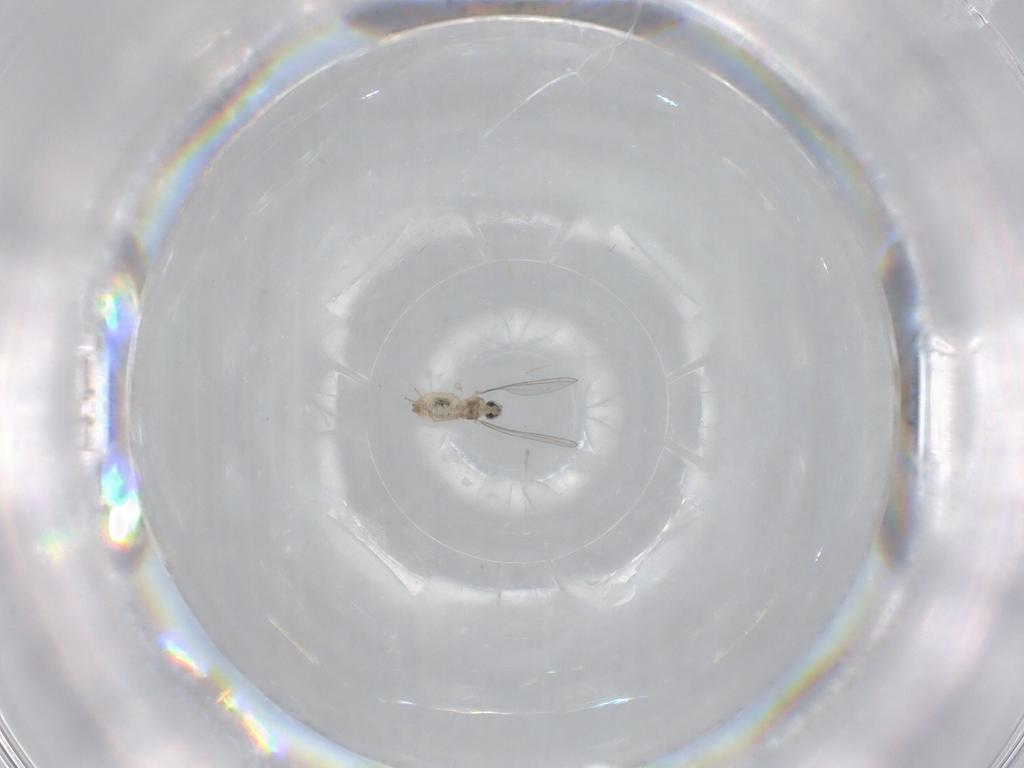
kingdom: Animalia
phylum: Arthropoda
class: Insecta
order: Diptera
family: Cecidomyiidae
